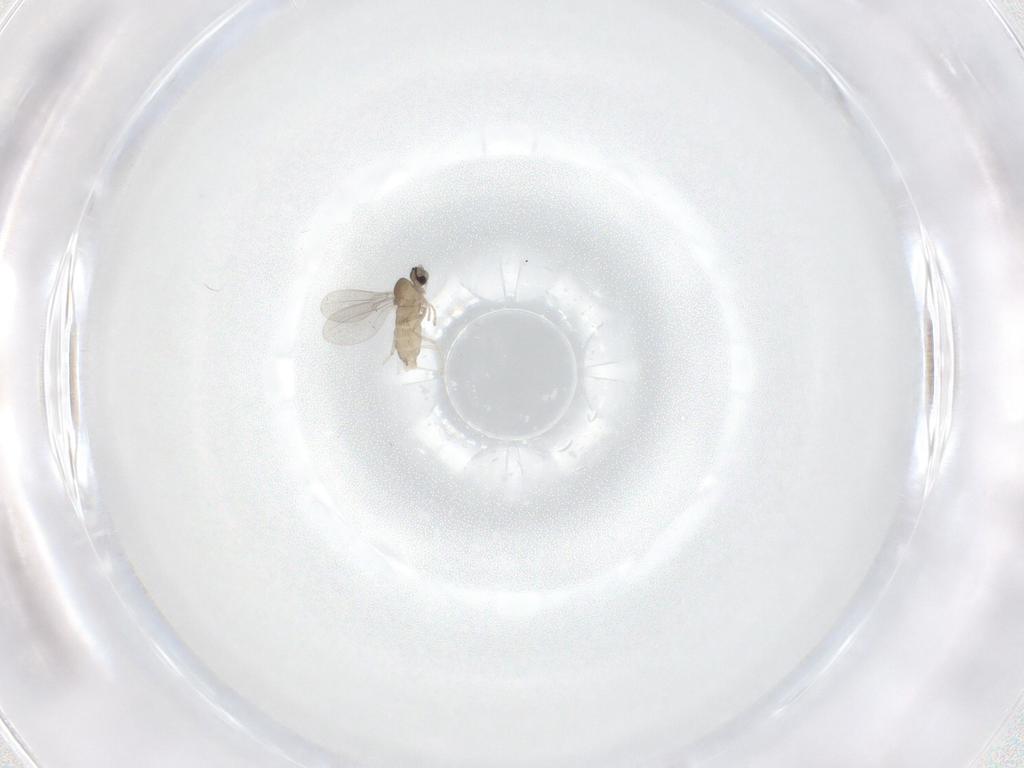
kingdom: Animalia
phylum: Arthropoda
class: Insecta
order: Diptera
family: Cecidomyiidae
